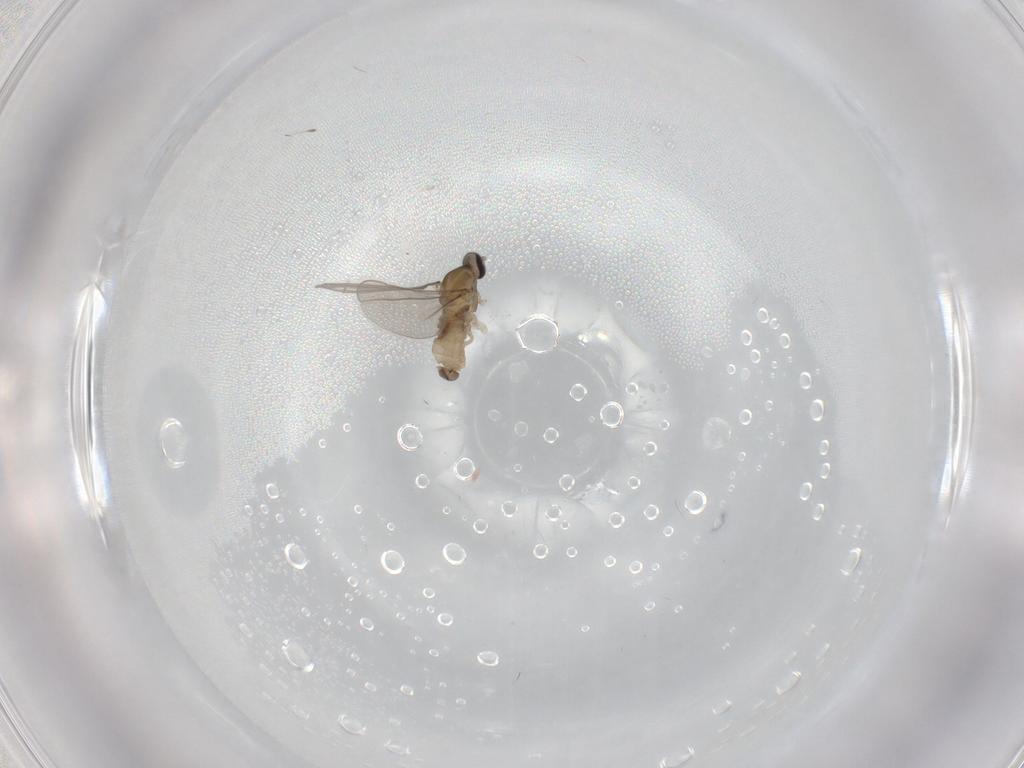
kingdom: Animalia
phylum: Arthropoda
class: Insecta
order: Diptera
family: Cecidomyiidae
